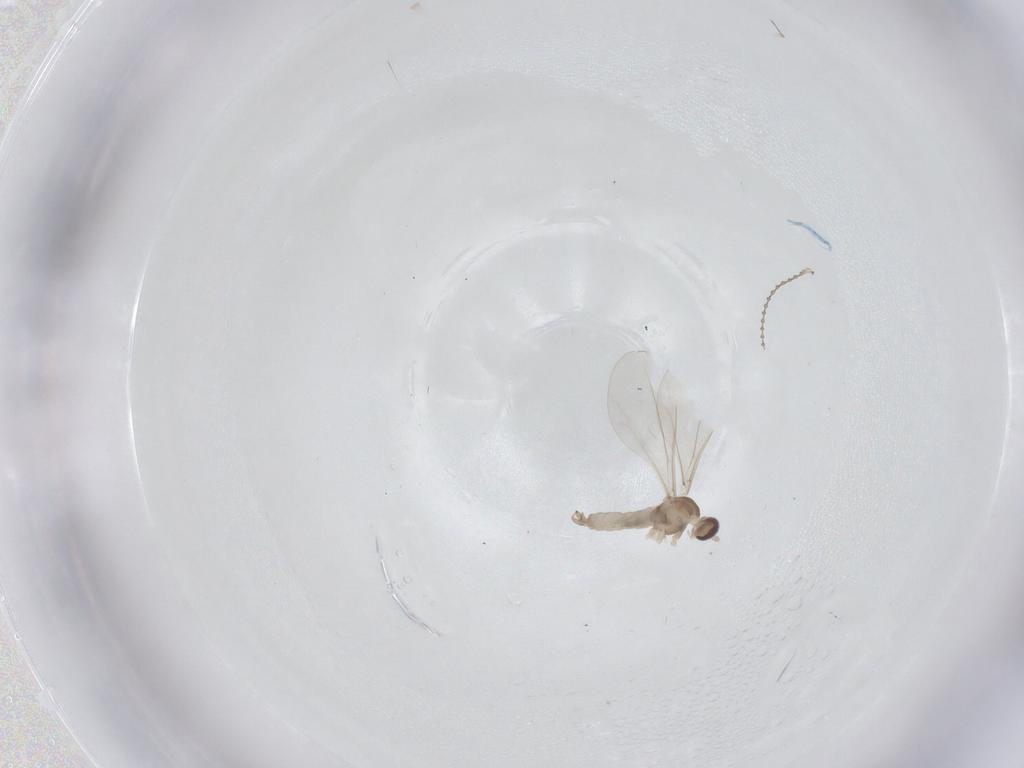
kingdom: Animalia
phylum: Arthropoda
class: Insecta
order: Diptera
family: Cecidomyiidae
